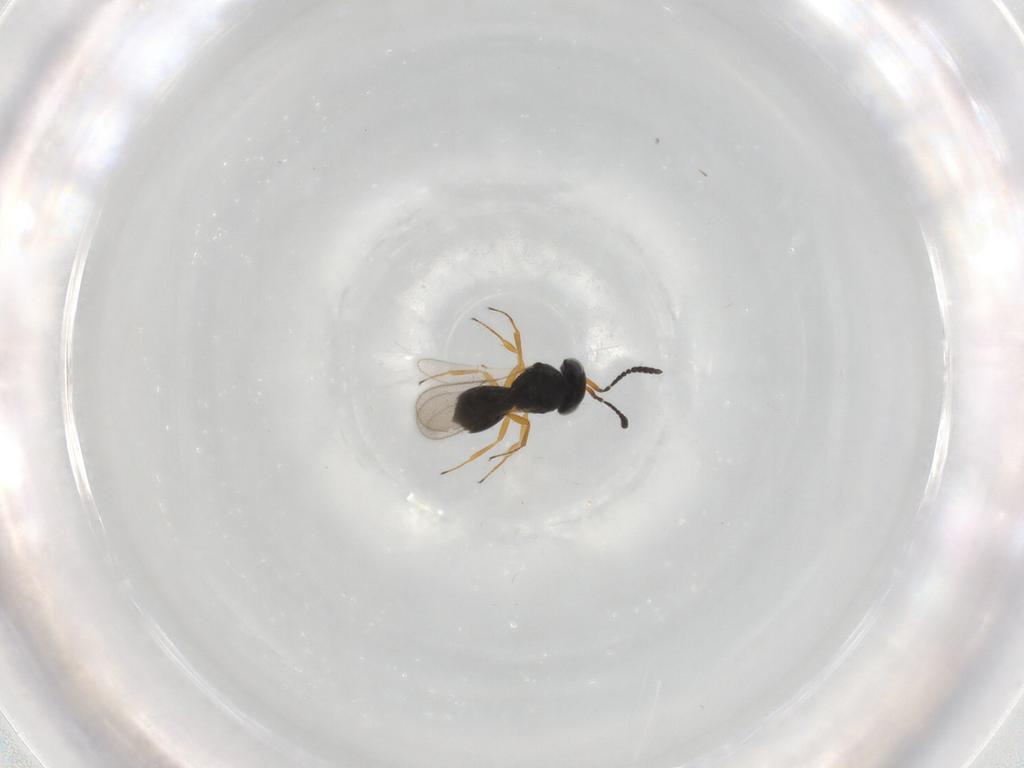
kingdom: Animalia
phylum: Arthropoda
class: Insecta
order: Hymenoptera
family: Scelionidae
